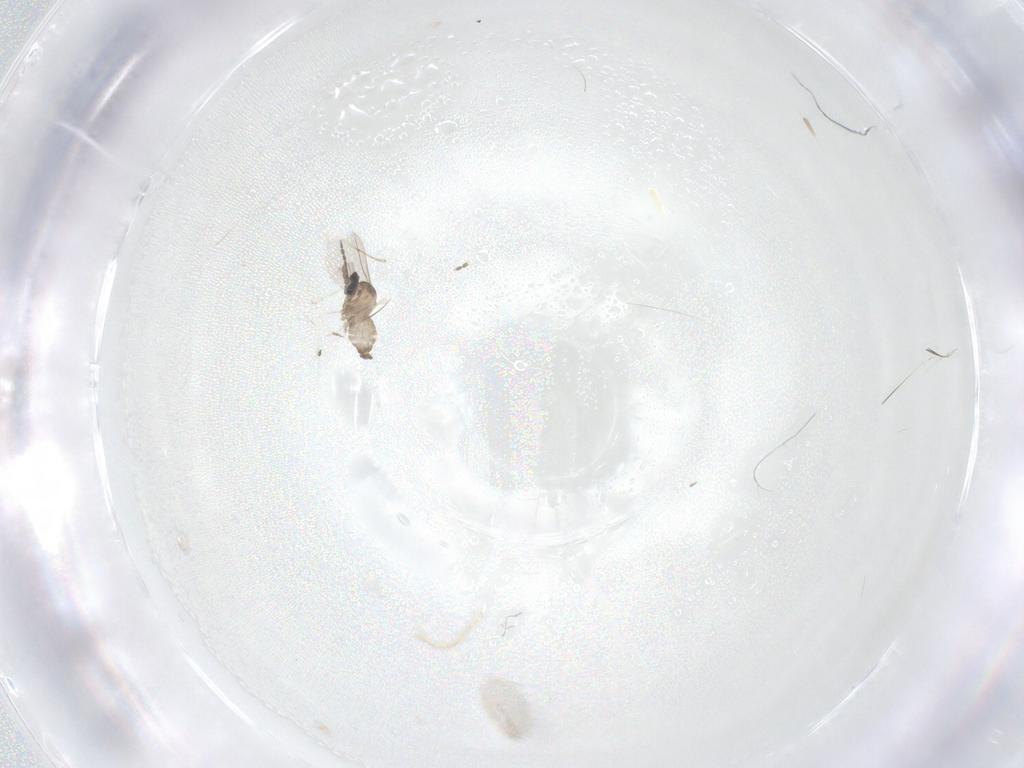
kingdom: Animalia
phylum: Arthropoda
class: Insecta
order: Diptera
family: Cecidomyiidae
